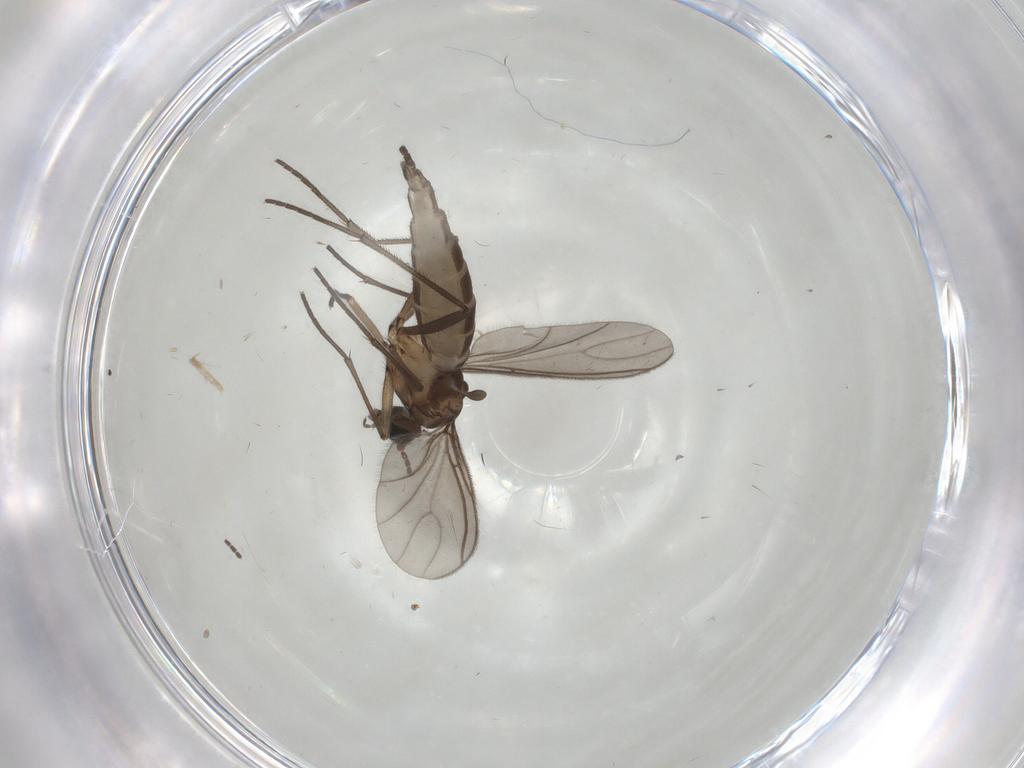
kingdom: Animalia
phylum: Arthropoda
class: Insecta
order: Diptera
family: Sciaridae
